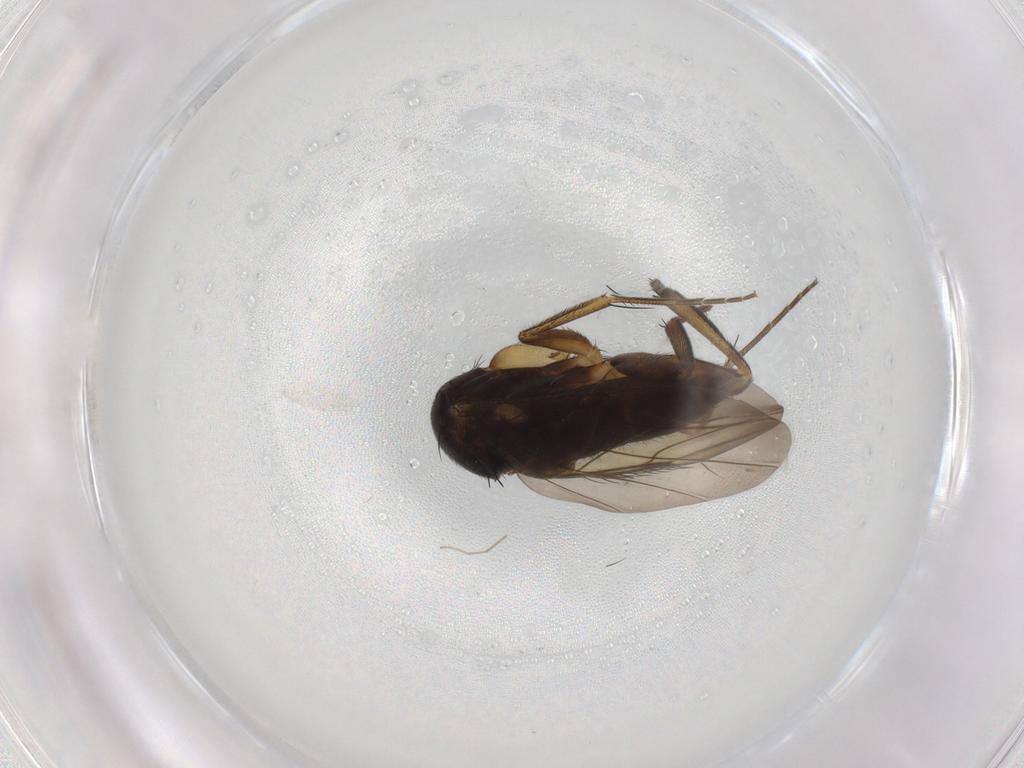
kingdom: Animalia
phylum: Arthropoda
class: Insecta
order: Diptera
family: Phoridae
